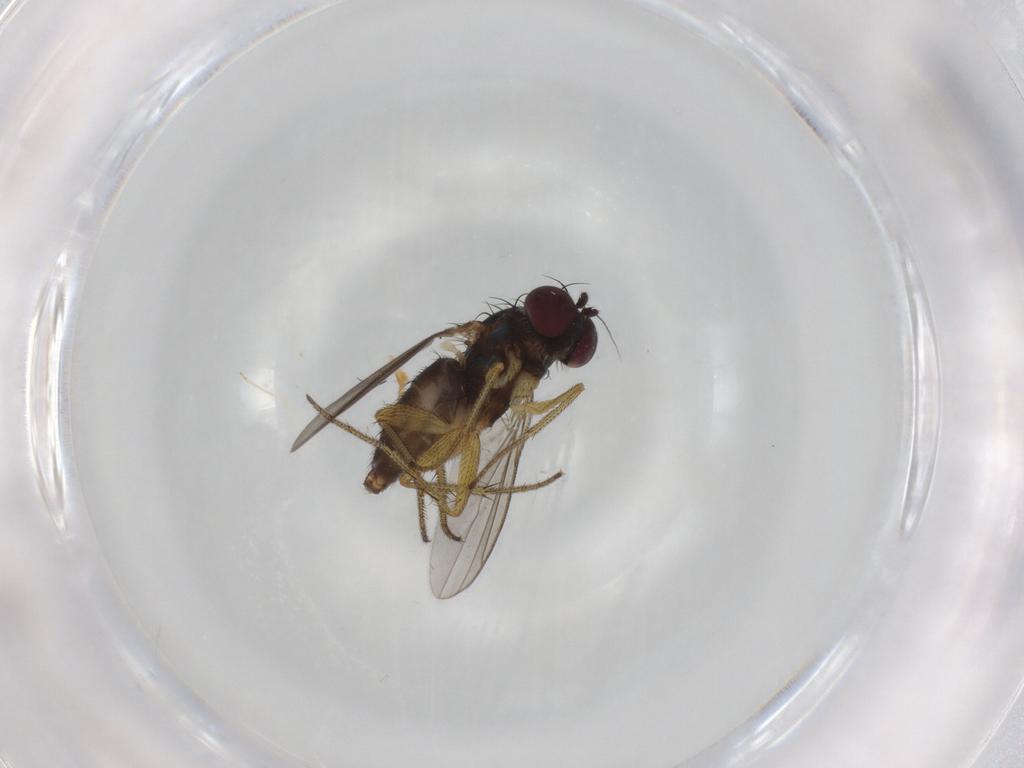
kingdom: Animalia
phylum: Arthropoda
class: Insecta
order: Diptera
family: Cecidomyiidae
